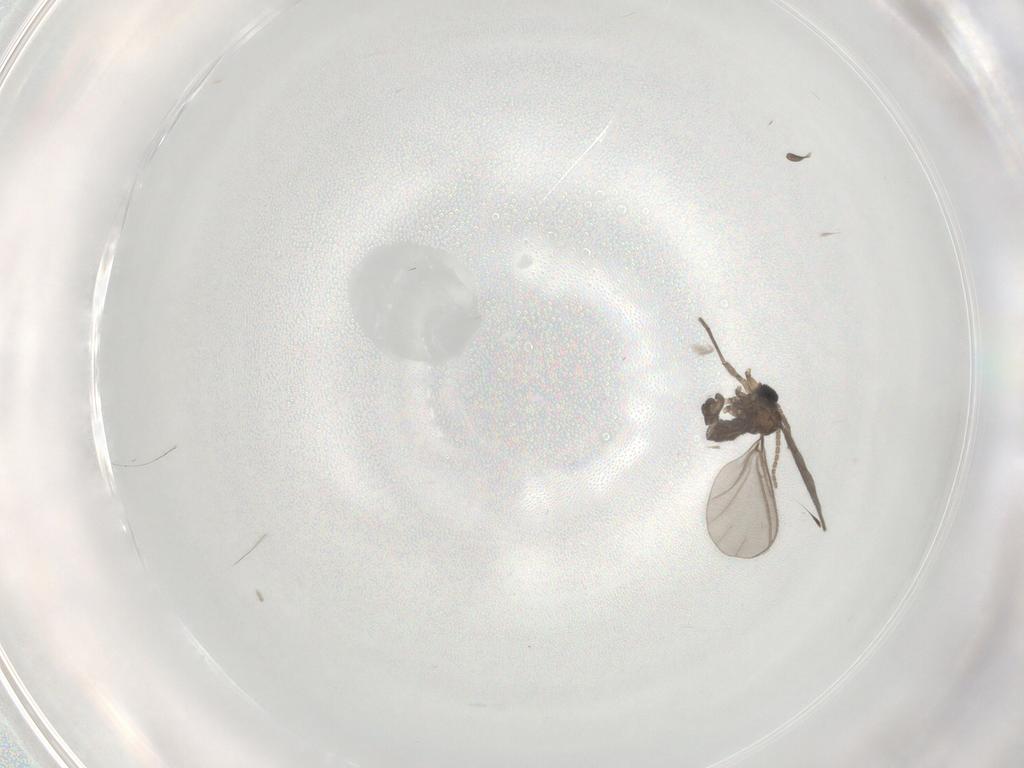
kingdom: Animalia
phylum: Arthropoda
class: Insecta
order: Diptera
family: Sciaridae
